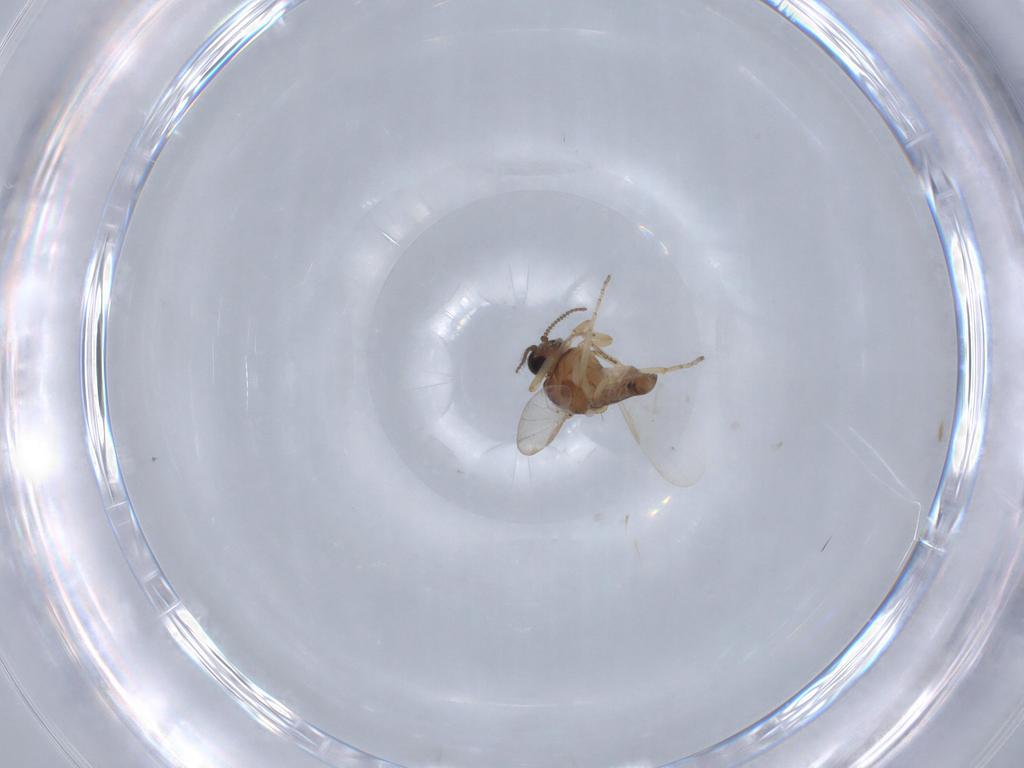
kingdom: Animalia
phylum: Arthropoda
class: Insecta
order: Diptera
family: Ceratopogonidae
